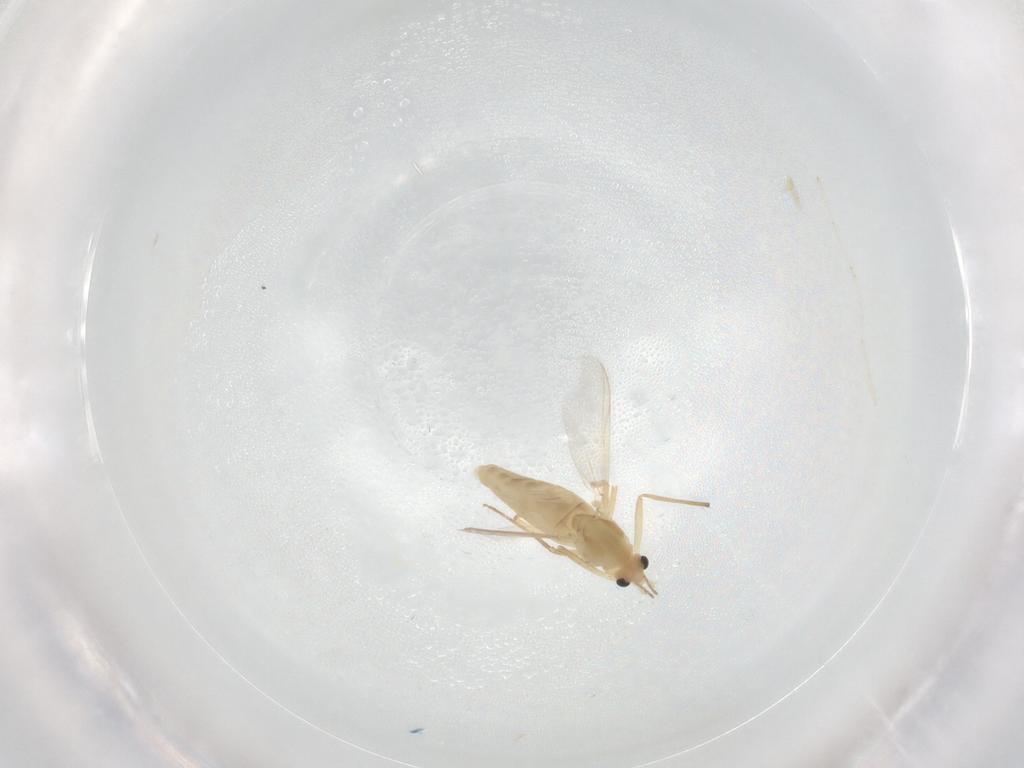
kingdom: Animalia
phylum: Arthropoda
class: Insecta
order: Diptera
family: Chironomidae
